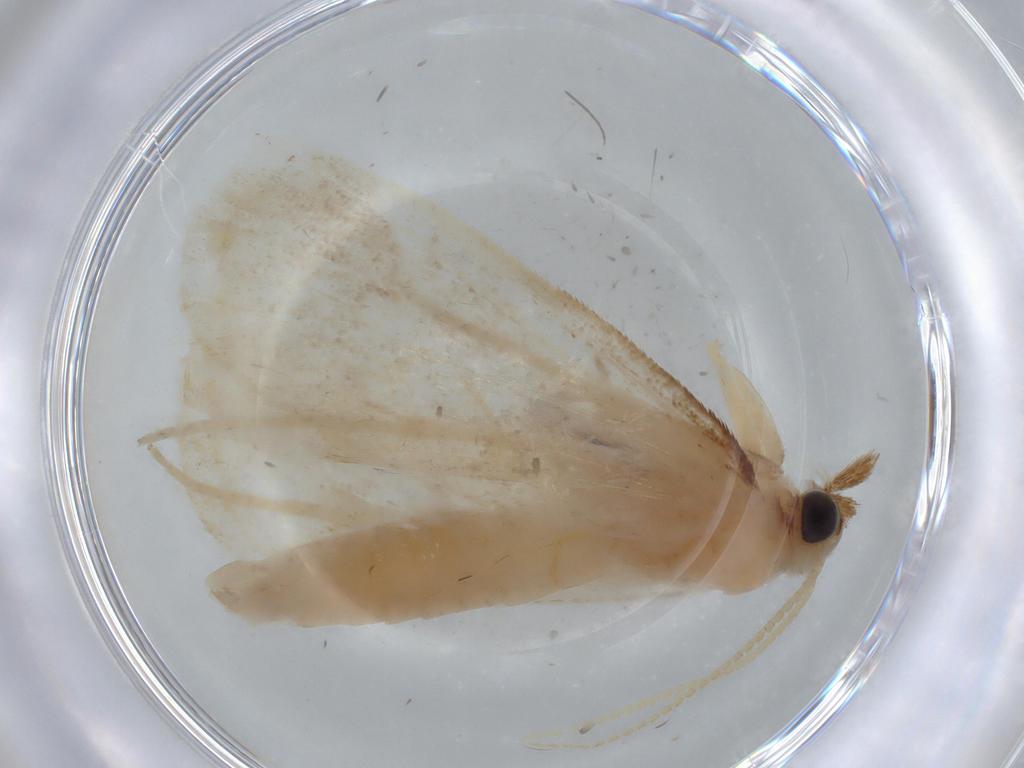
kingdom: Animalia
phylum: Arthropoda
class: Insecta
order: Lepidoptera
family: Crambidae
